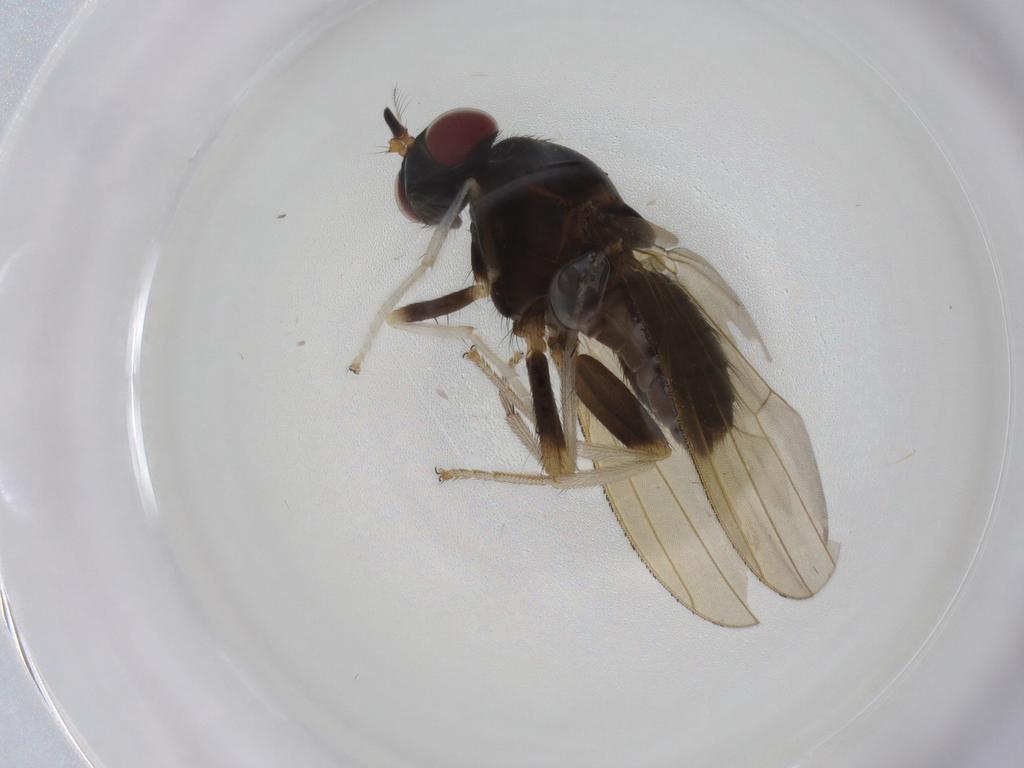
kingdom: Animalia
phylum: Arthropoda
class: Insecta
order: Diptera
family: Lauxaniidae
